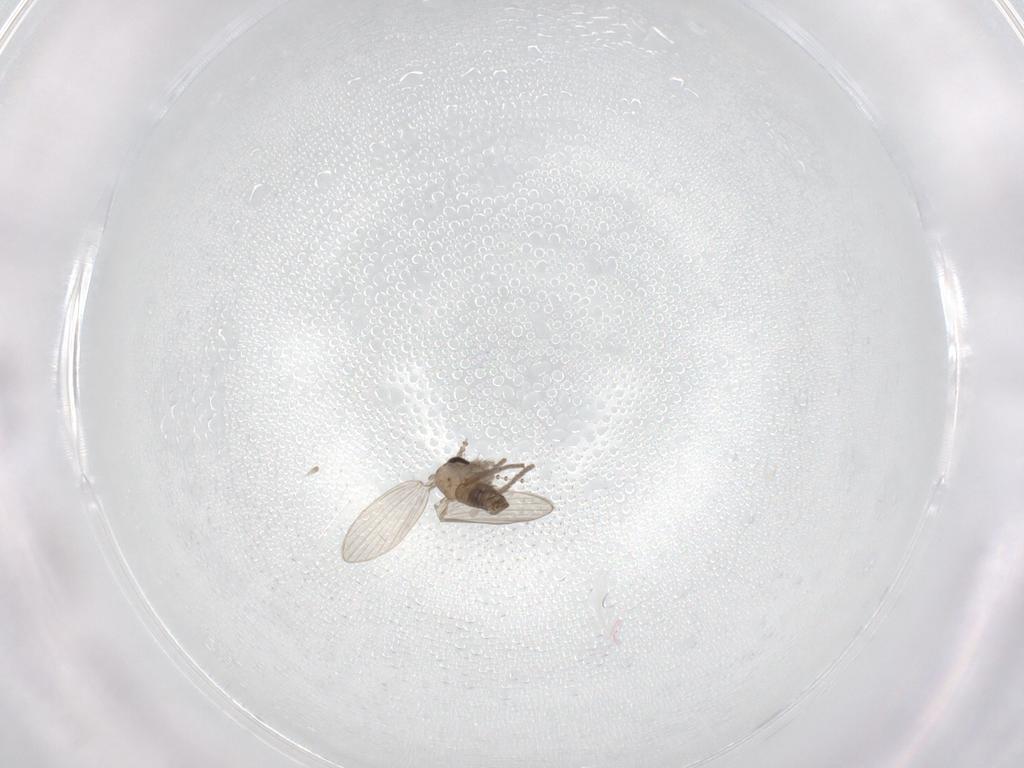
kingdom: Animalia
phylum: Arthropoda
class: Insecta
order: Diptera
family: Psychodidae
